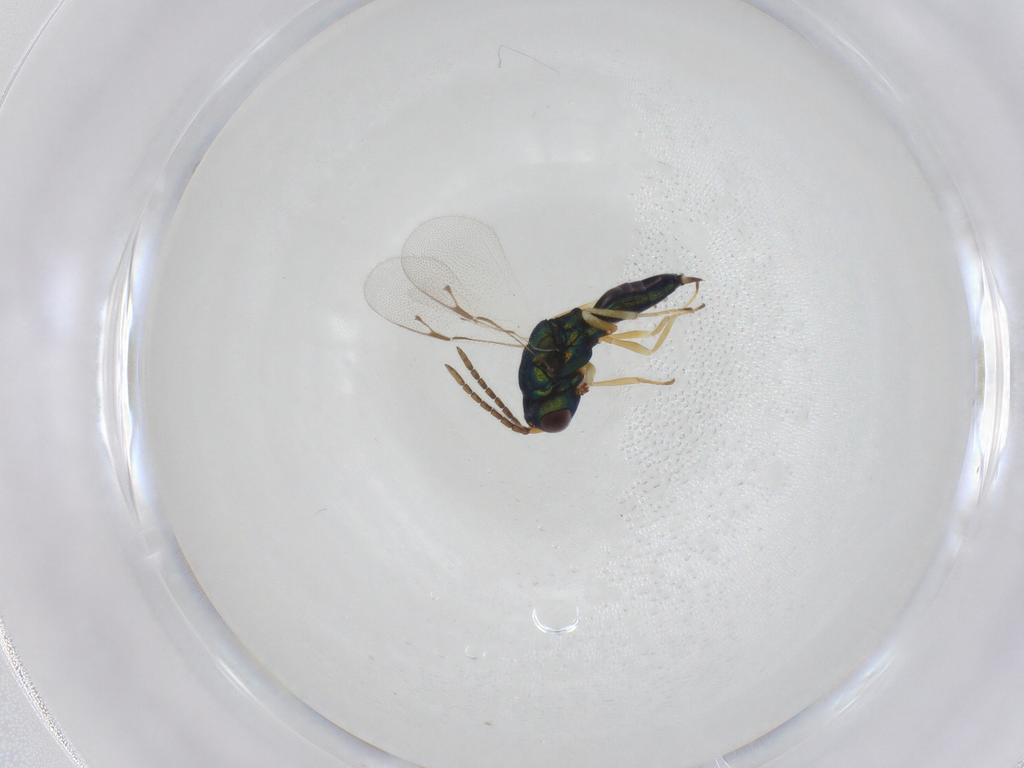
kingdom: Animalia
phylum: Arthropoda
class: Insecta
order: Hymenoptera
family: Pteromalidae
